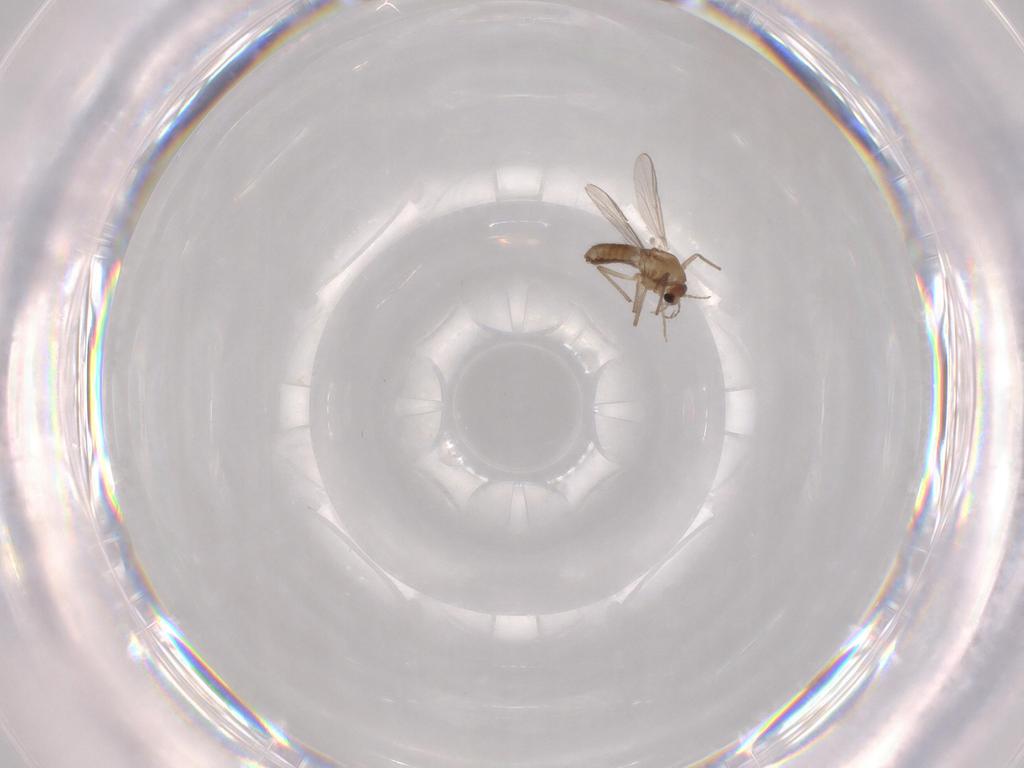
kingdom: Animalia
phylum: Arthropoda
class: Insecta
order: Diptera
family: Chironomidae
